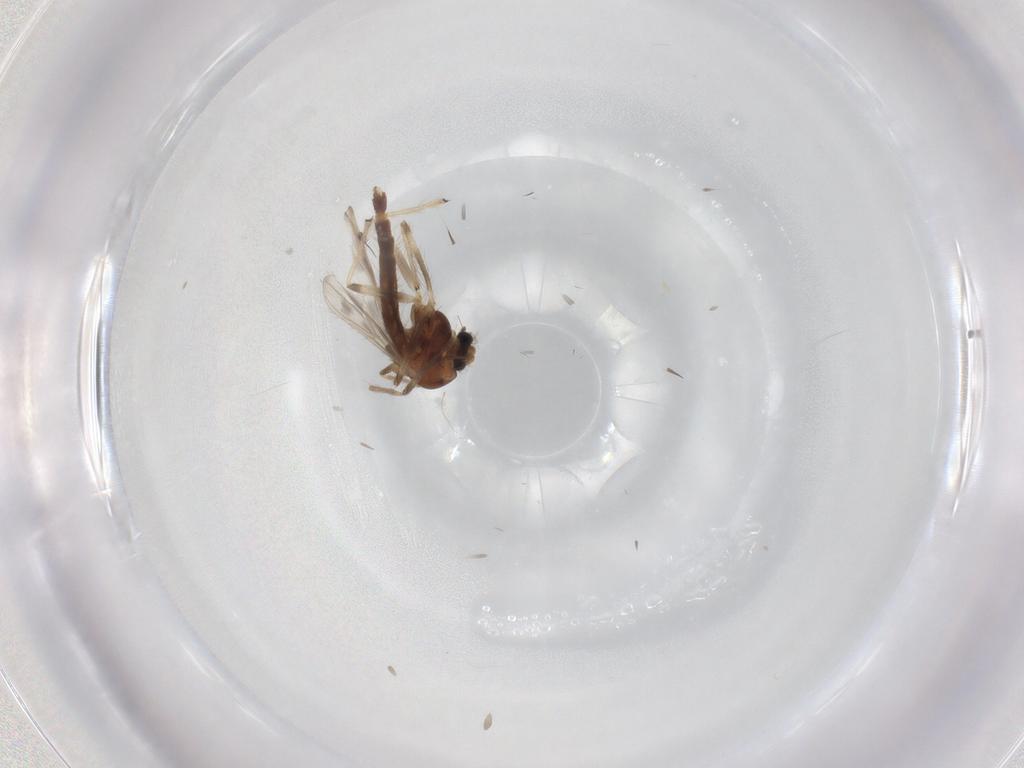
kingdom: Animalia
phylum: Arthropoda
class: Insecta
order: Diptera
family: Chironomidae
